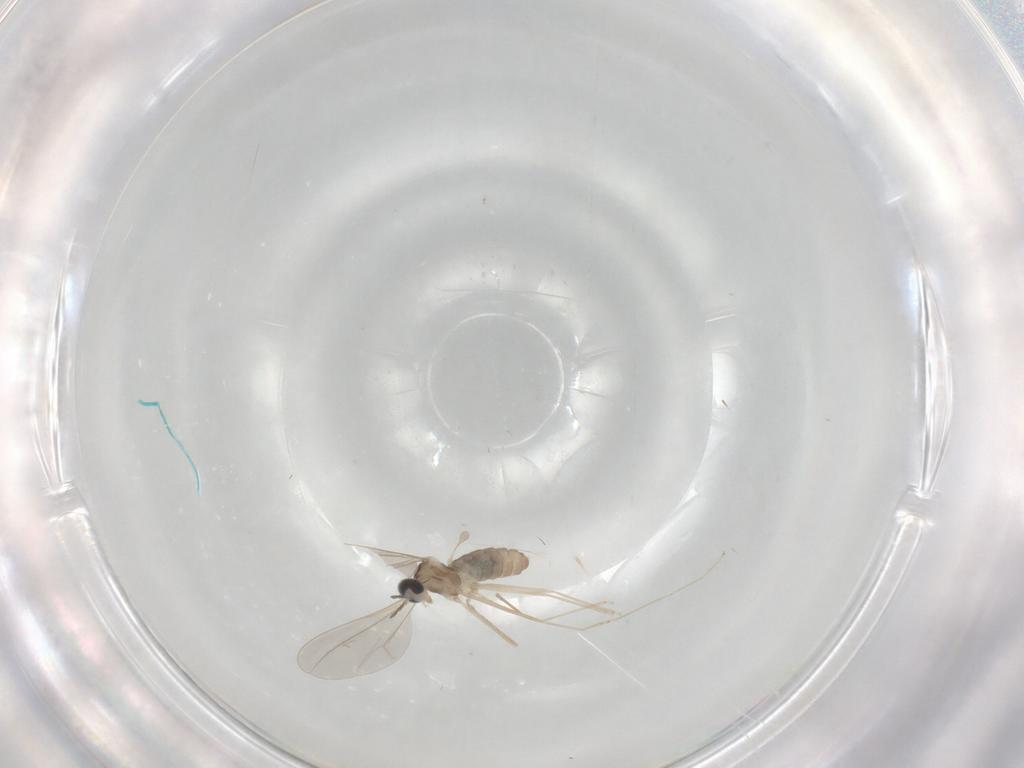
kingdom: Animalia
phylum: Arthropoda
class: Insecta
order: Diptera
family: Cecidomyiidae
